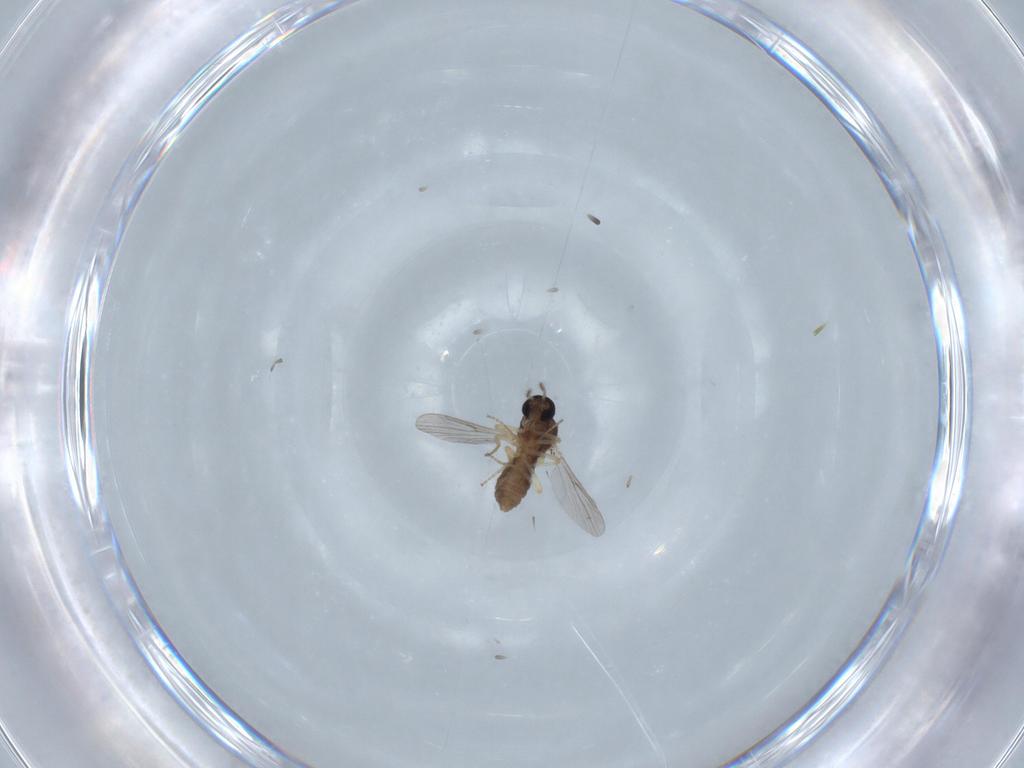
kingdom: Animalia
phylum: Arthropoda
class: Insecta
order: Diptera
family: Ceratopogonidae
